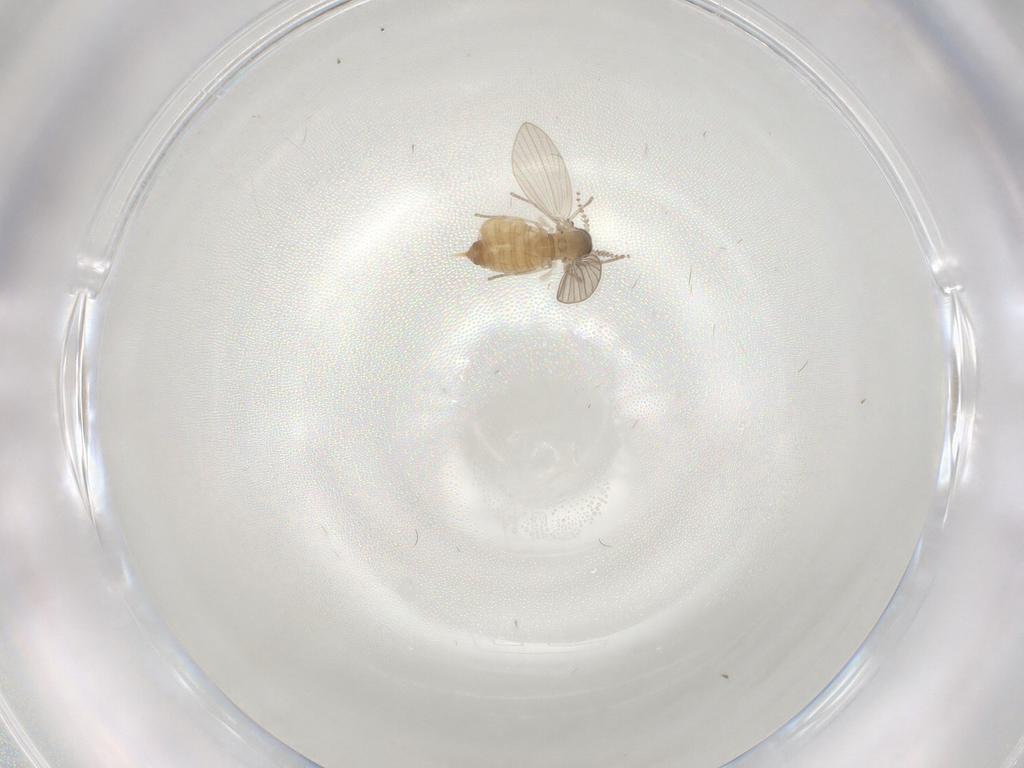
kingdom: Animalia
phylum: Arthropoda
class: Insecta
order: Diptera
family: Psychodidae
